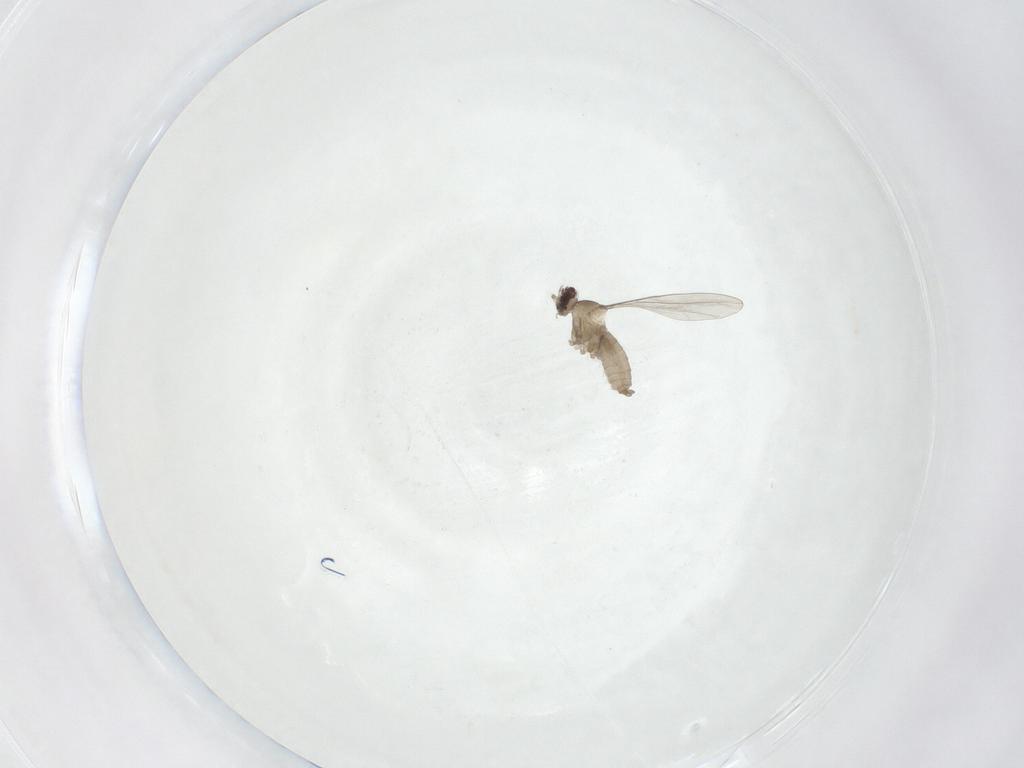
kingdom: Animalia
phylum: Arthropoda
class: Insecta
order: Diptera
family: Cecidomyiidae
